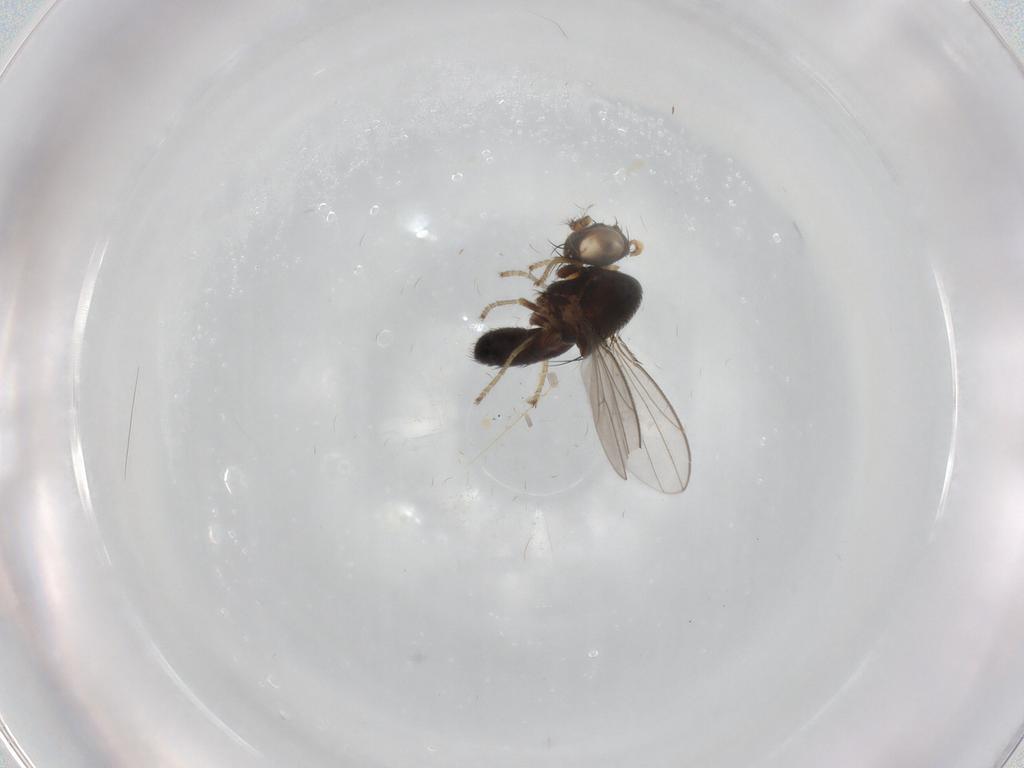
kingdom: Animalia
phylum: Arthropoda
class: Insecta
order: Diptera
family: Ephydridae
